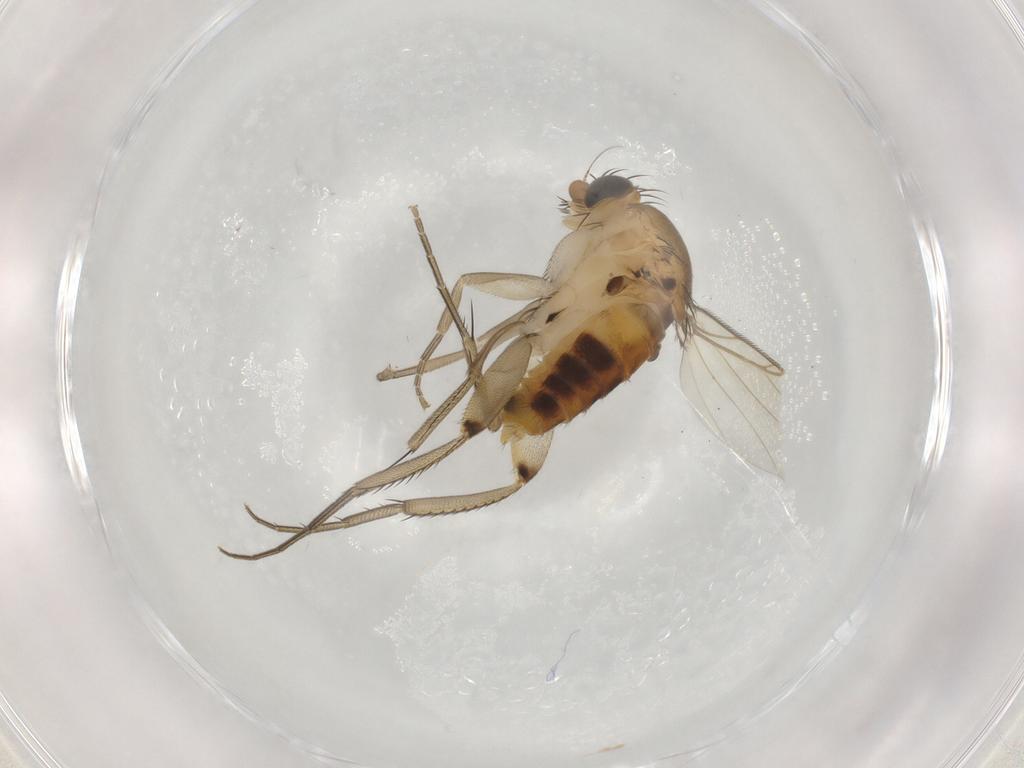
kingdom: Animalia
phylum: Arthropoda
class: Insecta
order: Diptera
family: Phoridae
